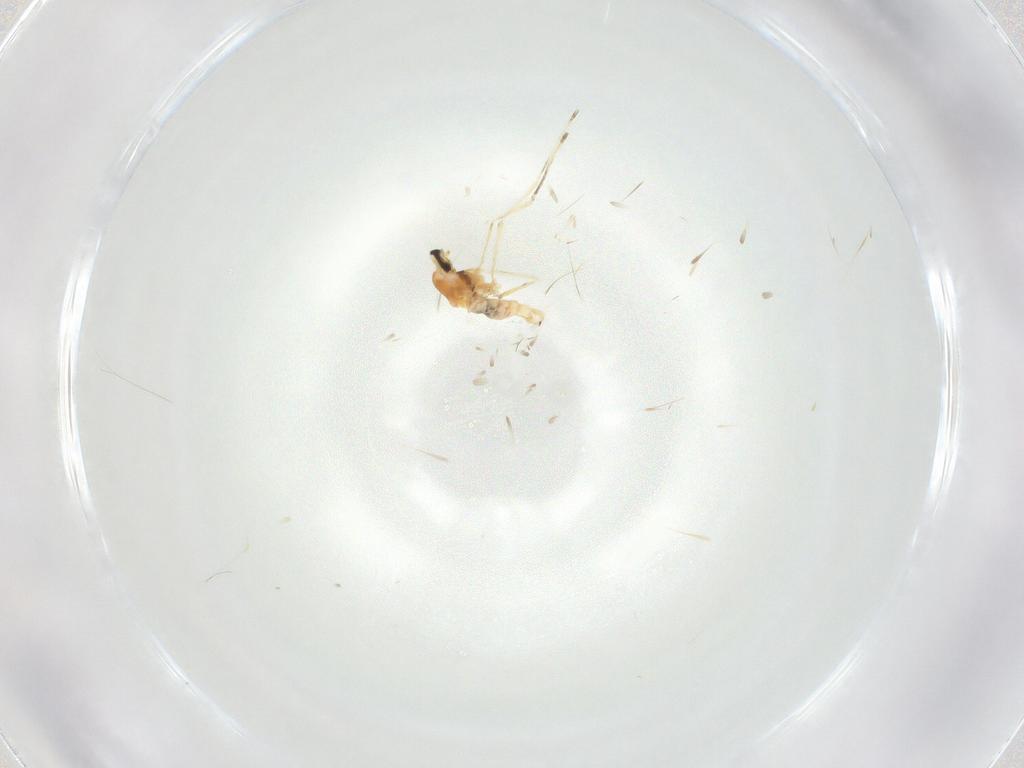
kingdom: Animalia
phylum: Arthropoda
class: Insecta
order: Diptera
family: Cecidomyiidae
